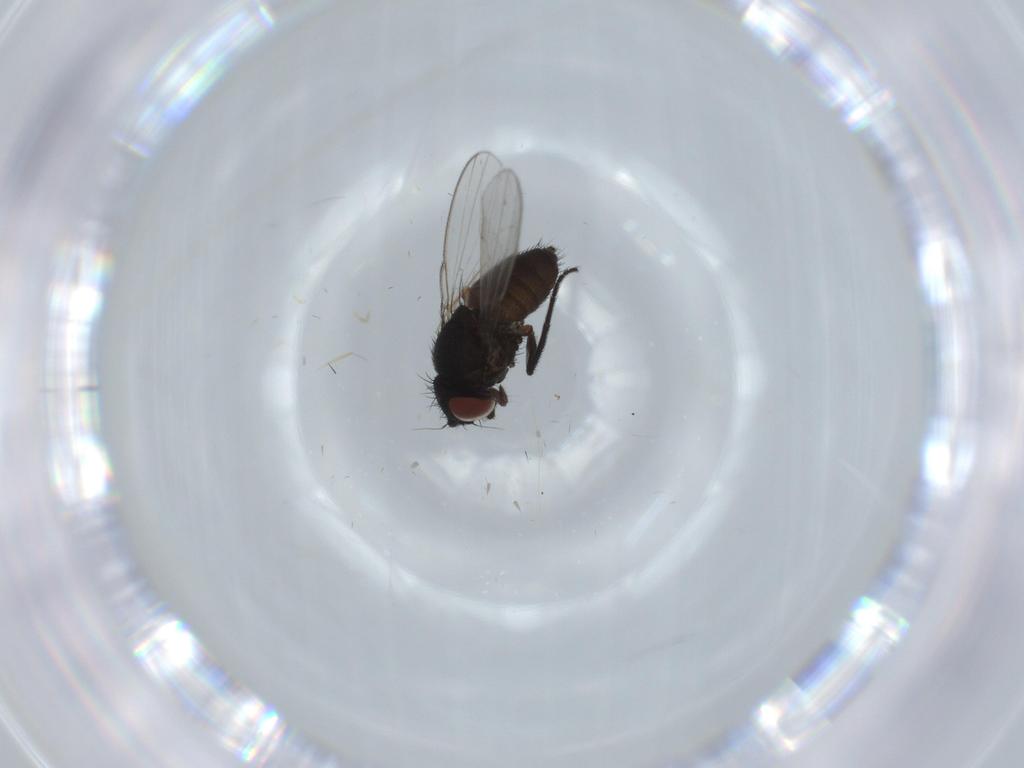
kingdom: Animalia
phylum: Arthropoda
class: Insecta
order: Diptera
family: Milichiidae
